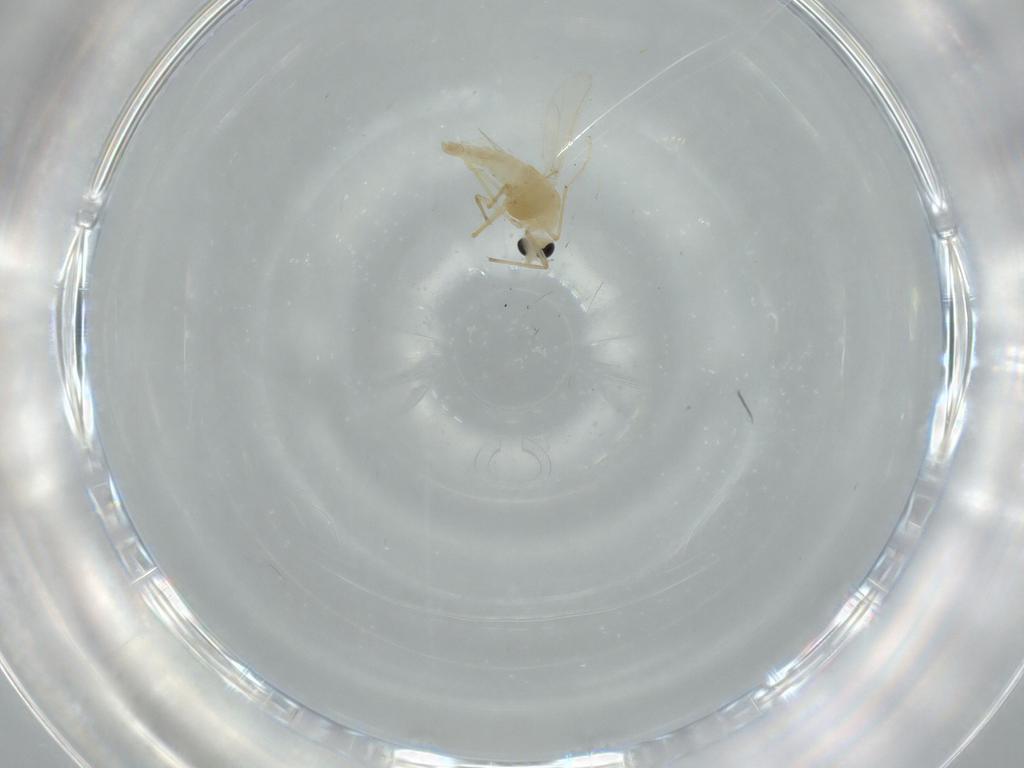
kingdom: Animalia
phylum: Arthropoda
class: Insecta
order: Diptera
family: Chironomidae
